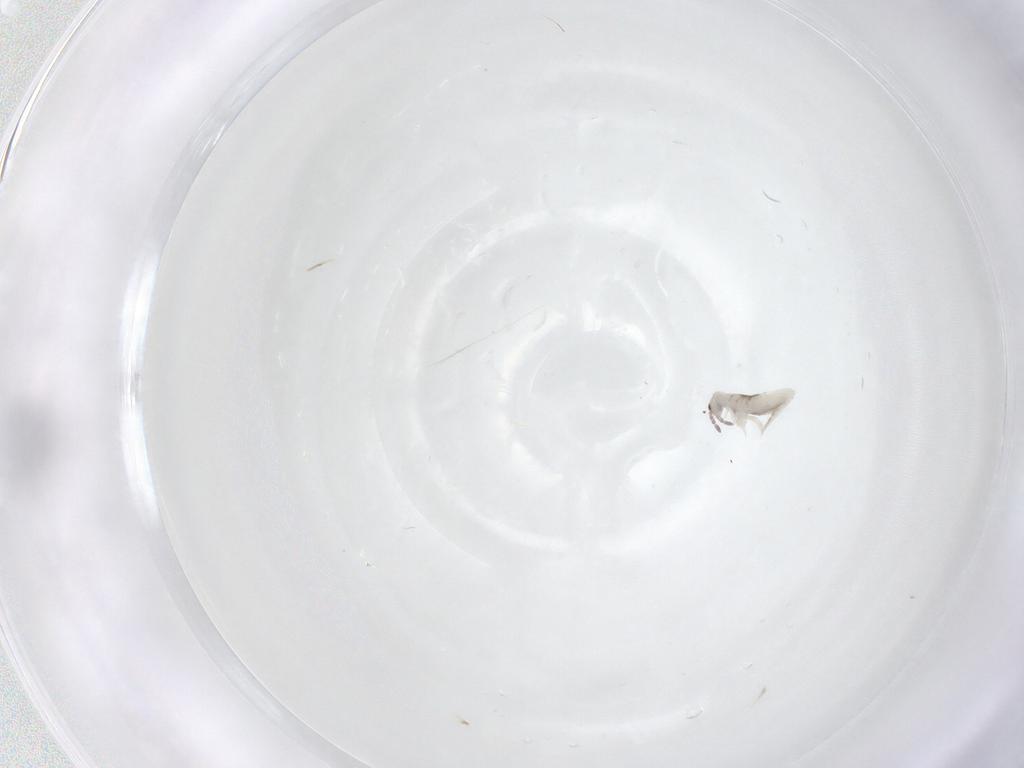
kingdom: Animalia
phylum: Arthropoda
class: Collembola
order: Entomobryomorpha
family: Entomobryidae
